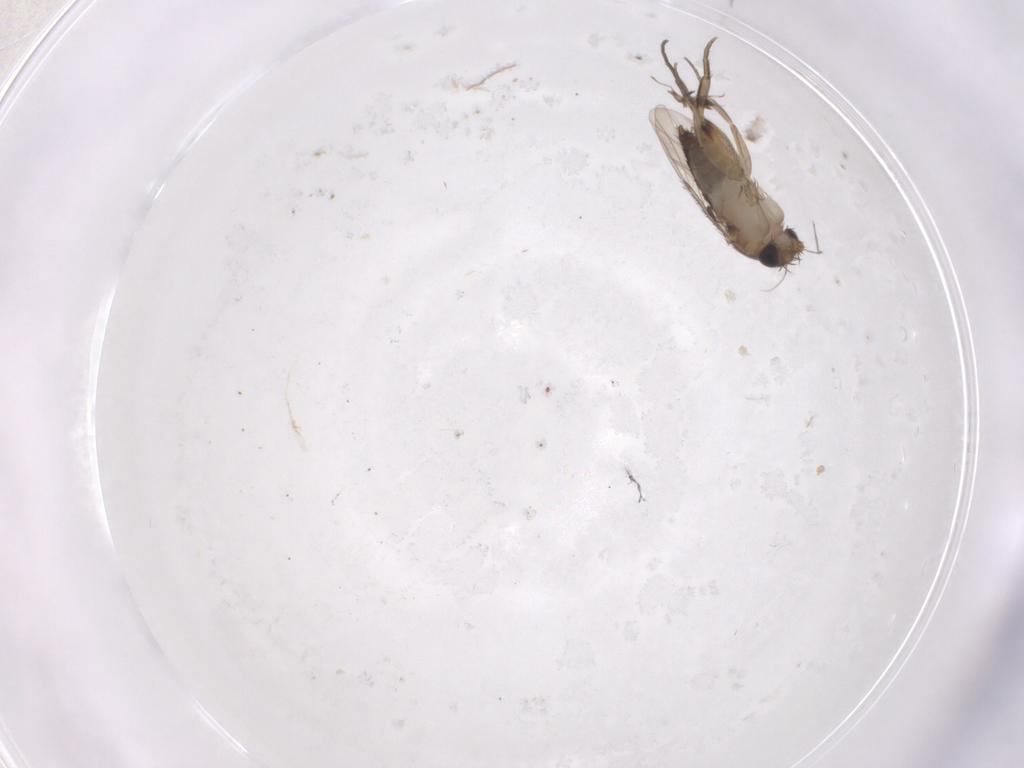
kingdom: Animalia
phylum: Arthropoda
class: Insecta
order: Diptera
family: Phoridae
